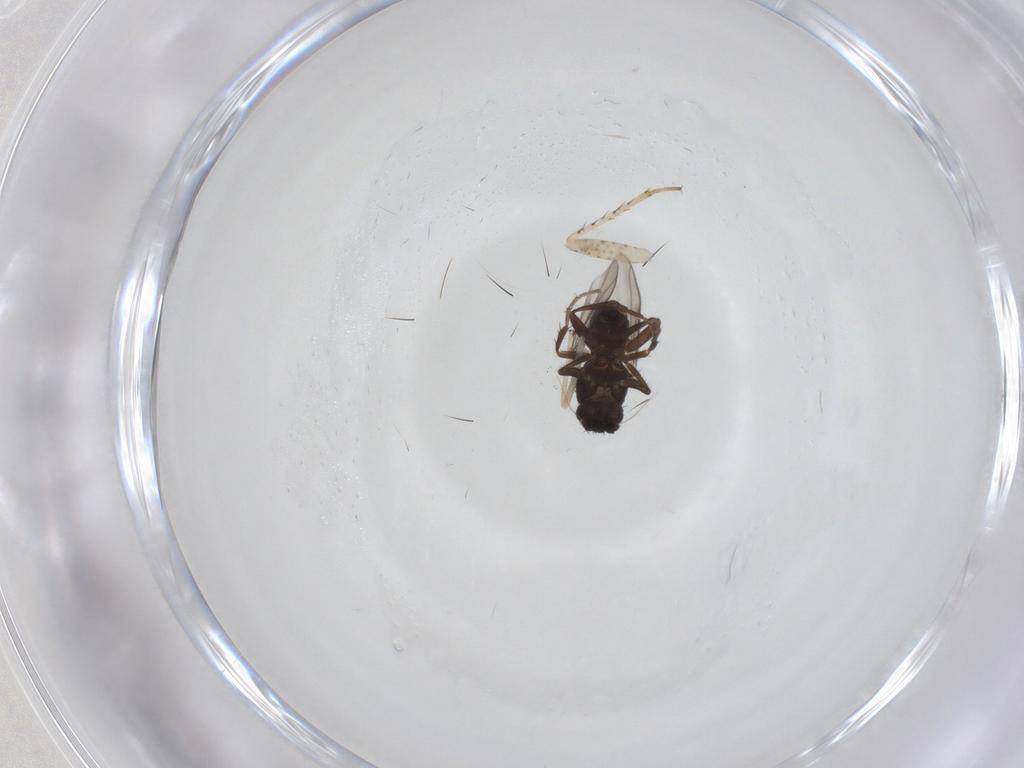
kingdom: Animalia
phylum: Arthropoda
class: Insecta
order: Diptera
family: Sphaeroceridae
